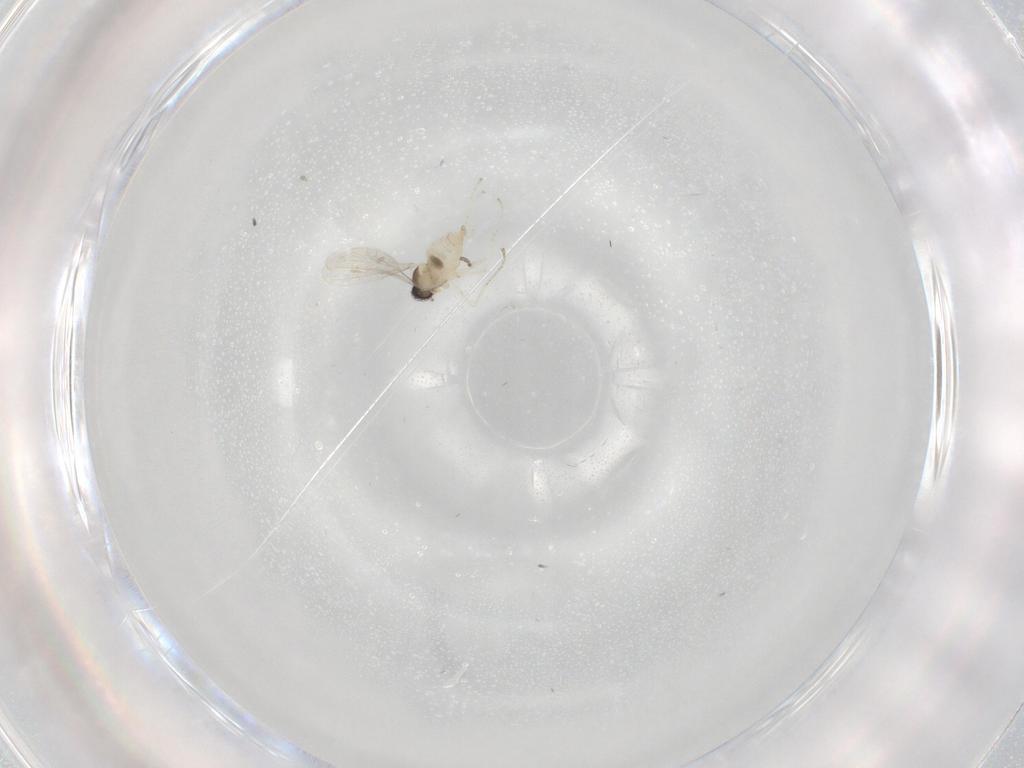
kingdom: Animalia
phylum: Arthropoda
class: Insecta
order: Diptera
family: Cecidomyiidae
